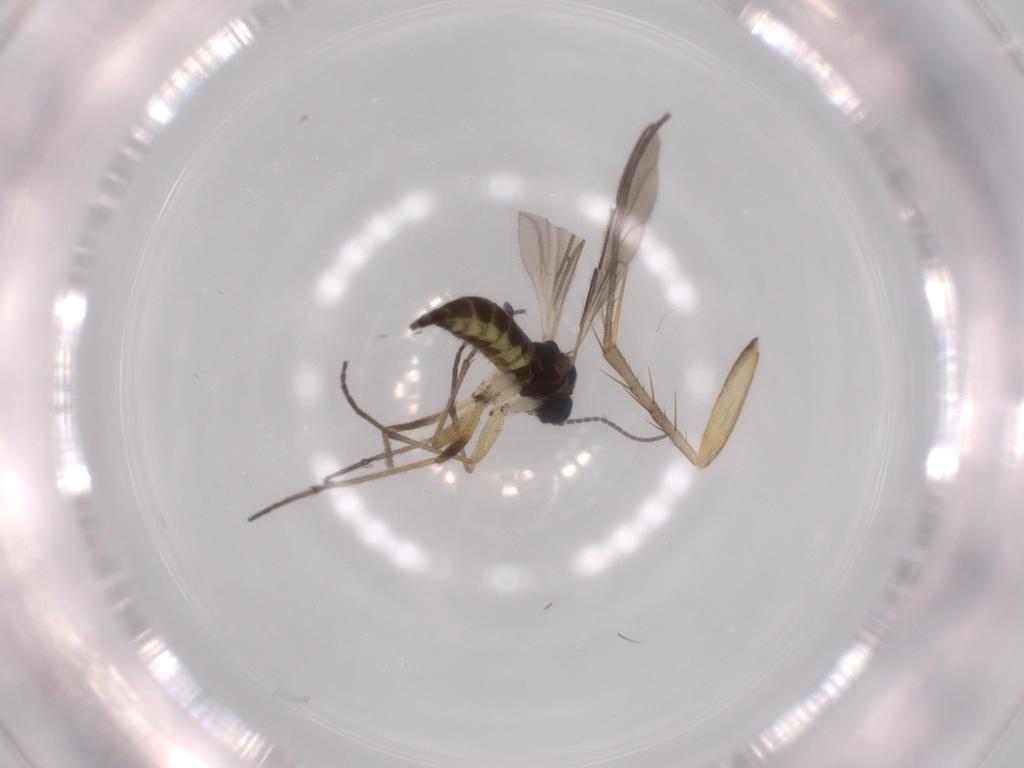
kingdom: Animalia
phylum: Arthropoda
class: Insecta
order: Diptera
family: Sciaridae
